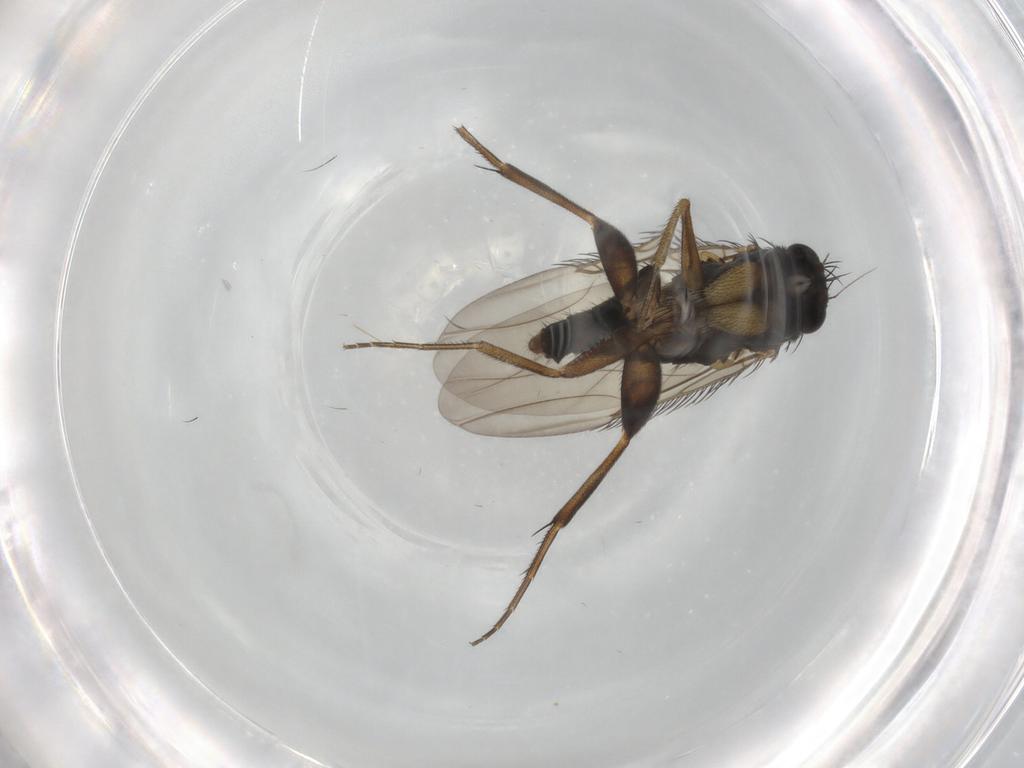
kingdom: Animalia
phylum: Arthropoda
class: Insecta
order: Diptera
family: Phoridae
